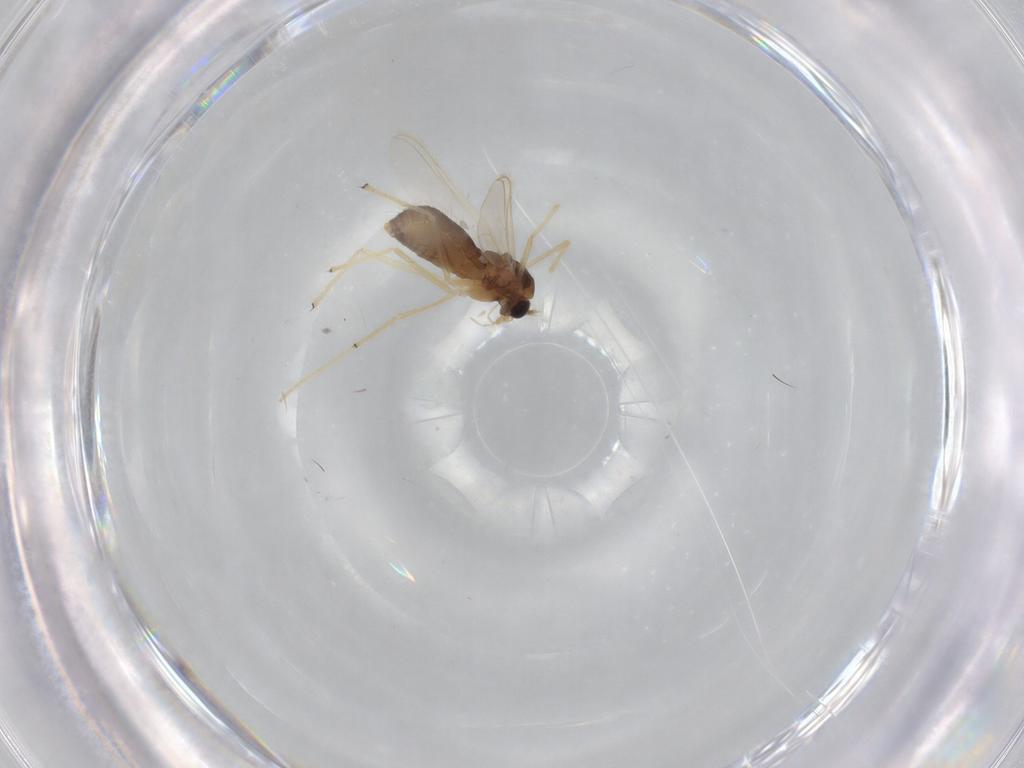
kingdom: Animalia
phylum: Arthropoda
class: Insecta
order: Diptera
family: Chironomidae
